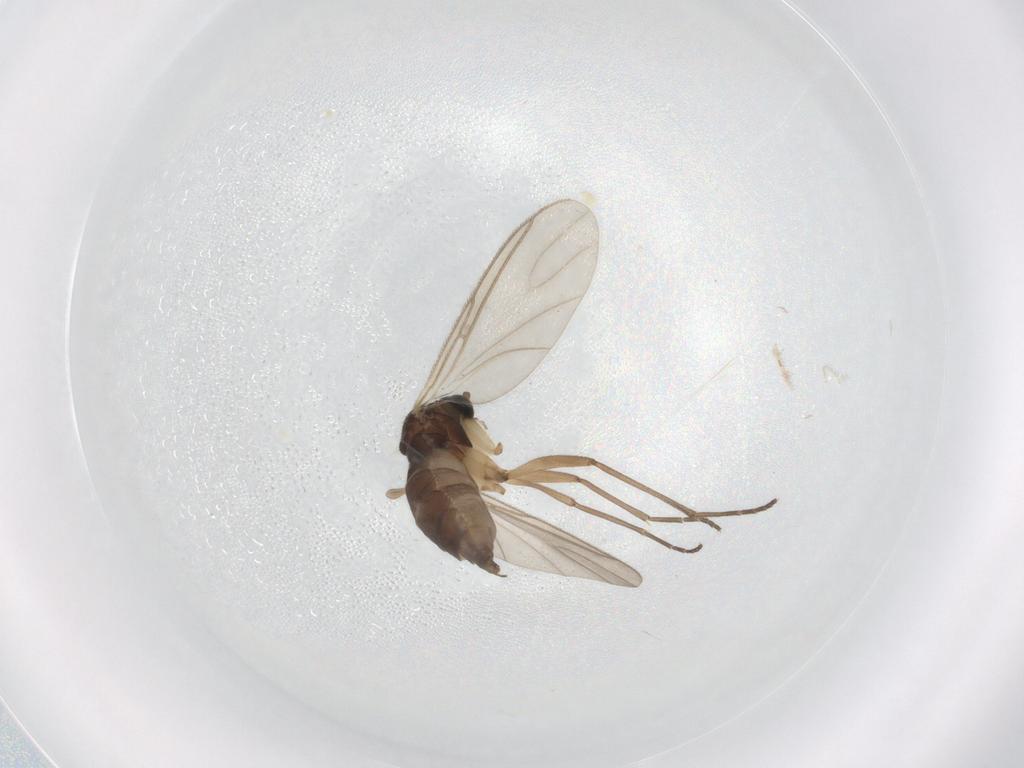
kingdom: Animalia
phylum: Arthropoda
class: Insecta
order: Diptera
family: Sciaridae
